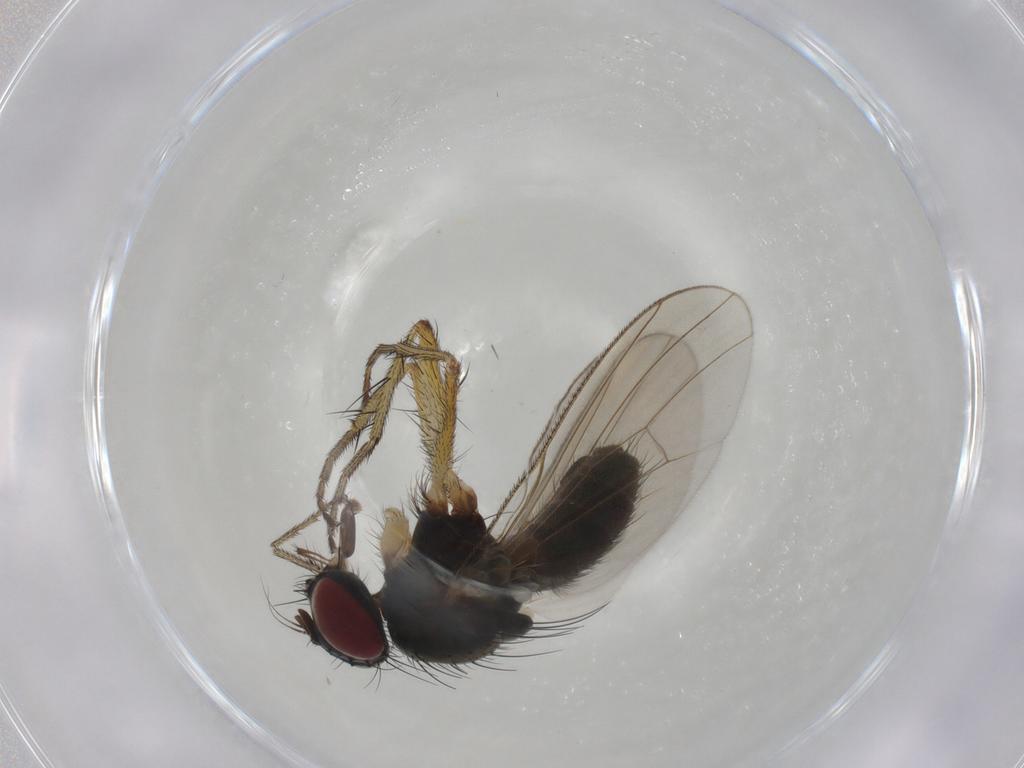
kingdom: Animalia
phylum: Arthropoda
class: Insecta
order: Diptera
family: Muscidae
